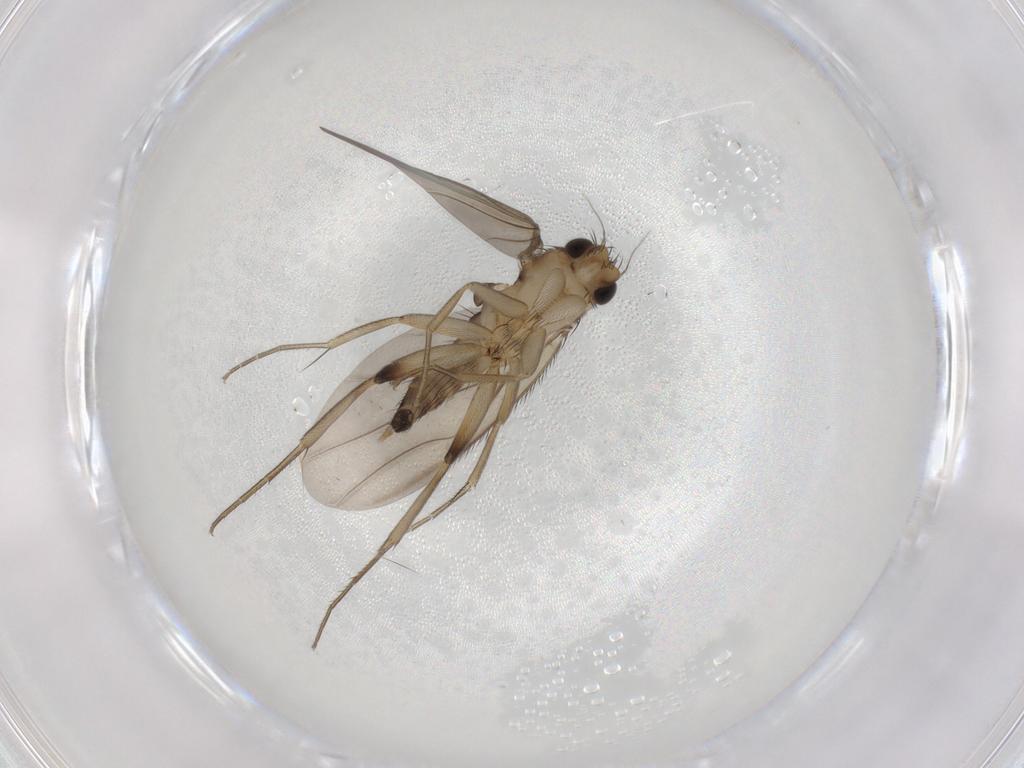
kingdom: Animalia
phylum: Arthropoda
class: Insecta
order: Diptera
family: Phoridae
